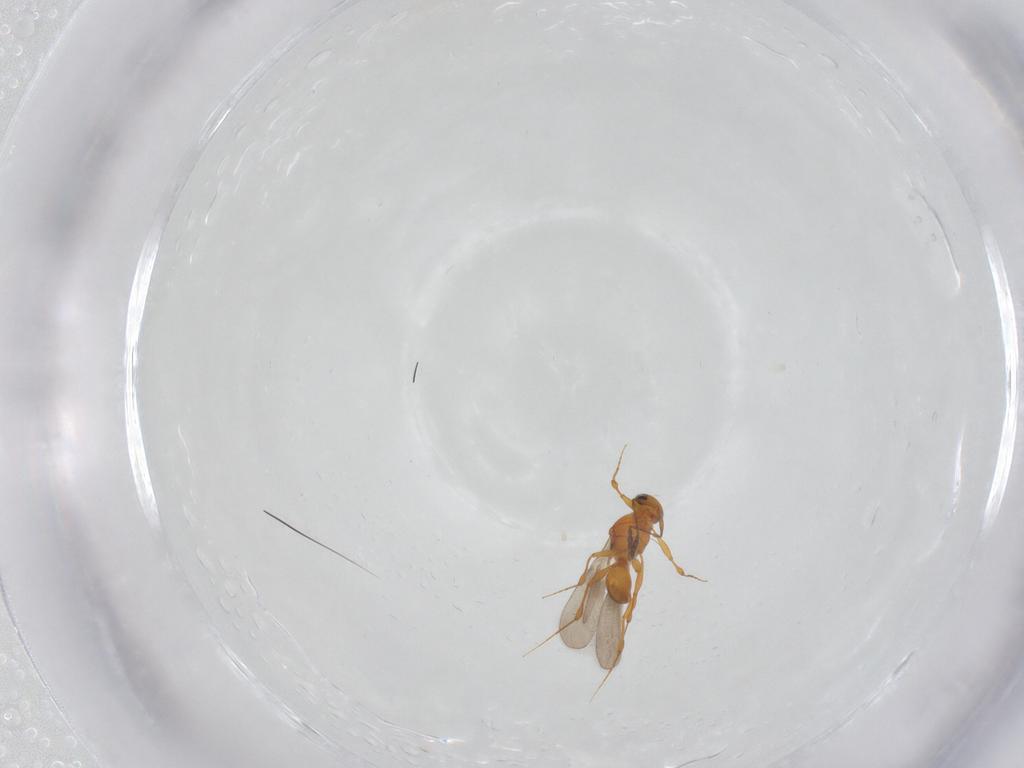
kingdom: Animalia
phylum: Arthropoda
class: Insecta
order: Hymenoptera
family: Platygastridae
